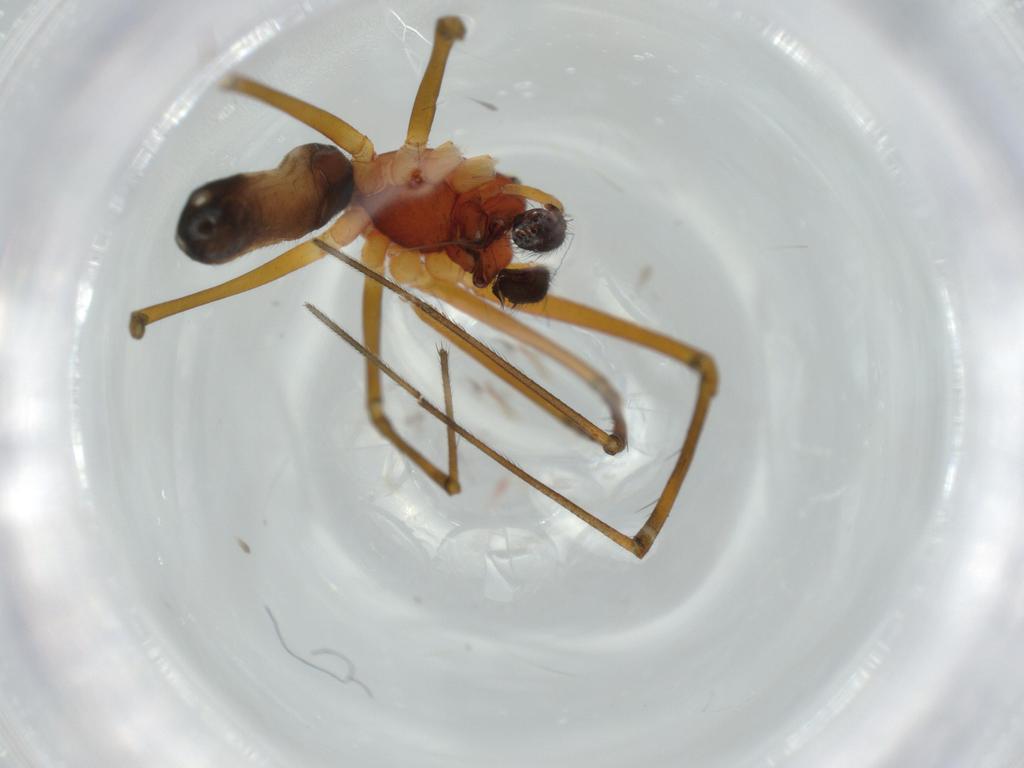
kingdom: Animalia
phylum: Arthropoda
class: Arachnida
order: Araneae
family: Linyphiidae
